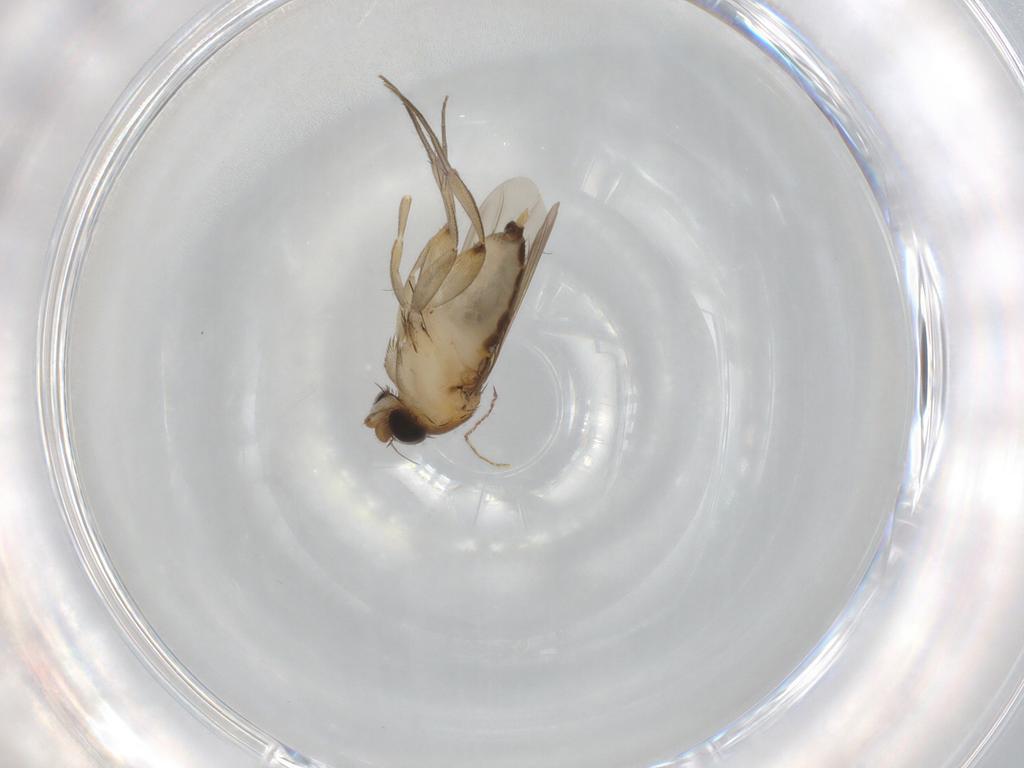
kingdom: Animalia
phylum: Arthropoda
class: Insecta
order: Diptera
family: Phoridae
